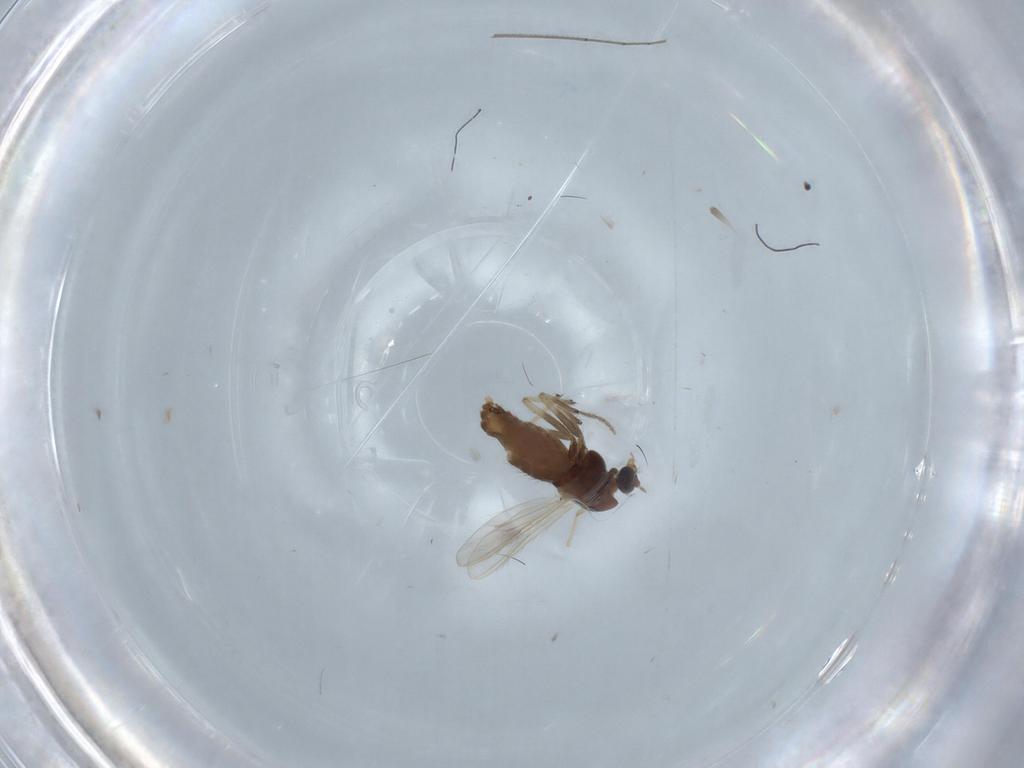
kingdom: Animalia
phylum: Arthropoda
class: Insecta
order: Diptera
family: Chironomidae
